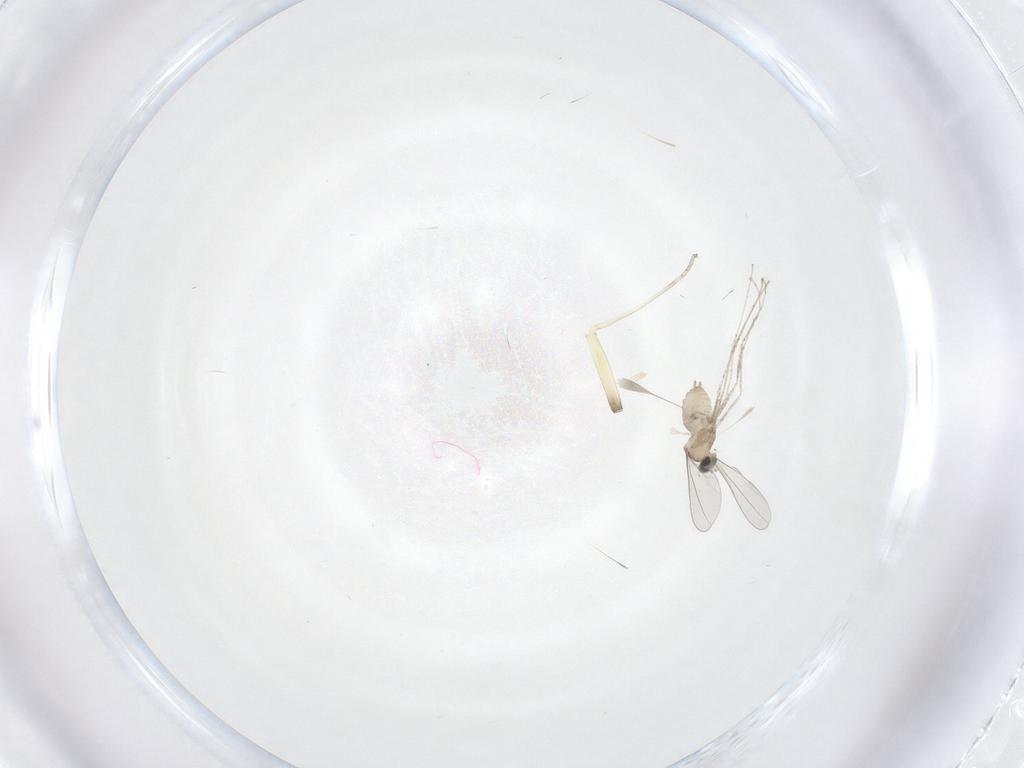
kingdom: Animalia
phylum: Arthropoda
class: Insecta
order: Diptera
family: Cecidomyiidae
